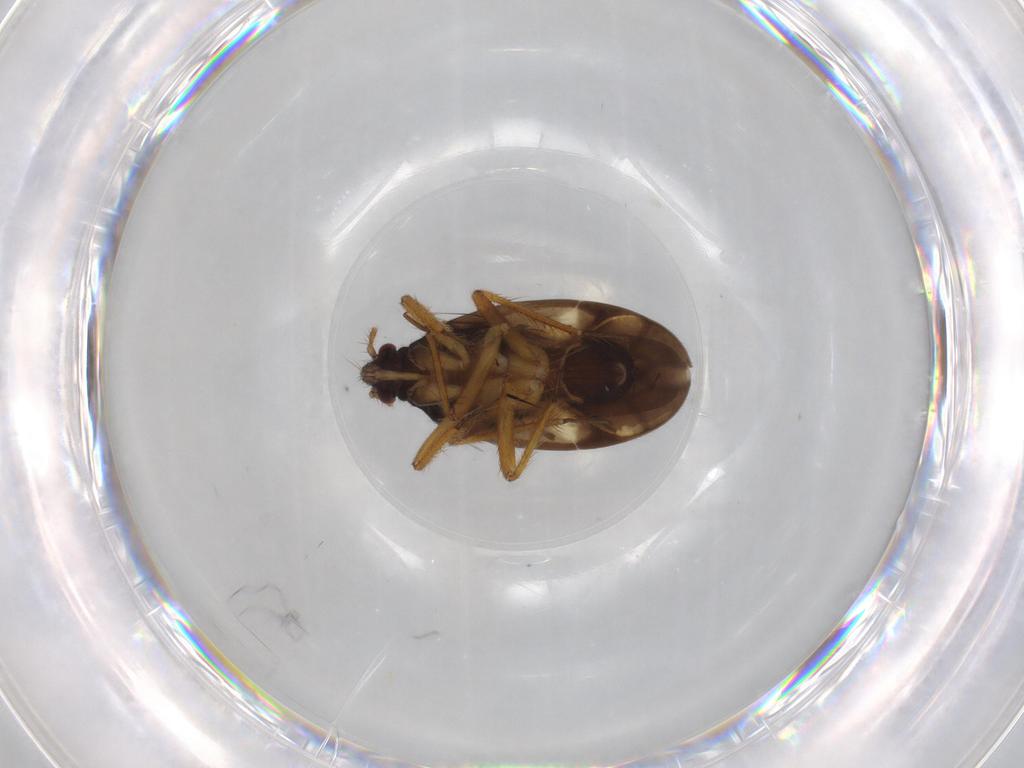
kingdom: Animalia
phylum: Arthropoda
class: Insecta
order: Hemiptera
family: Ceratocombidae
